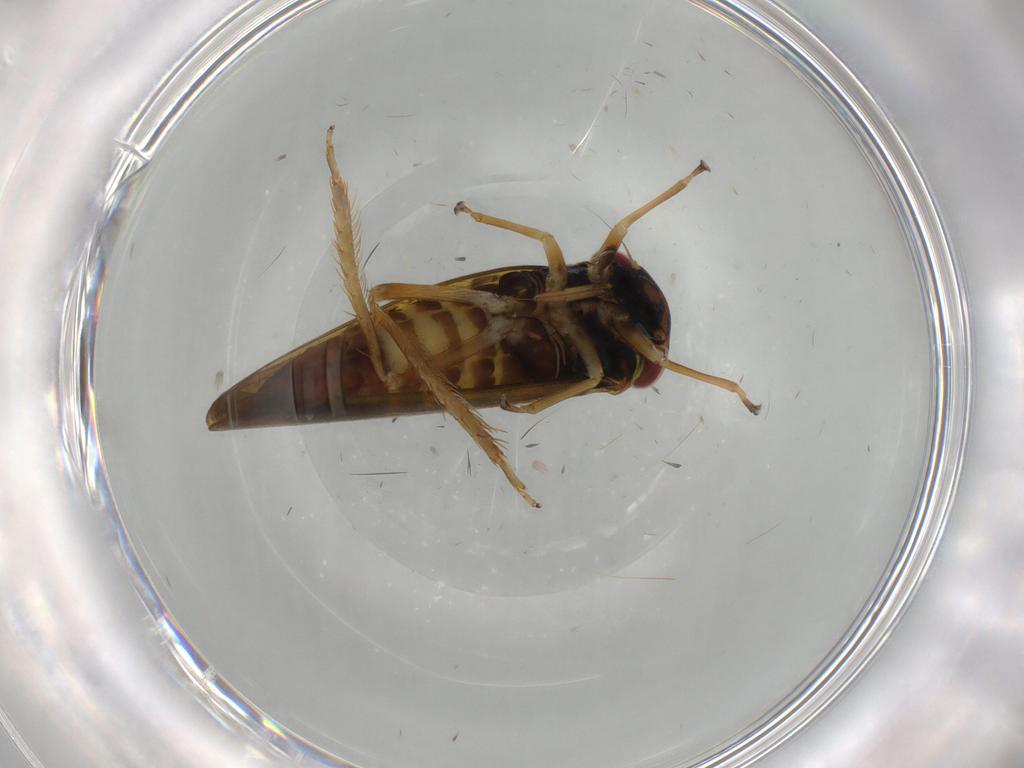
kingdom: Animalia
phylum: Arthropoda
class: Insecta
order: Hemiptera
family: Cicadellidae
